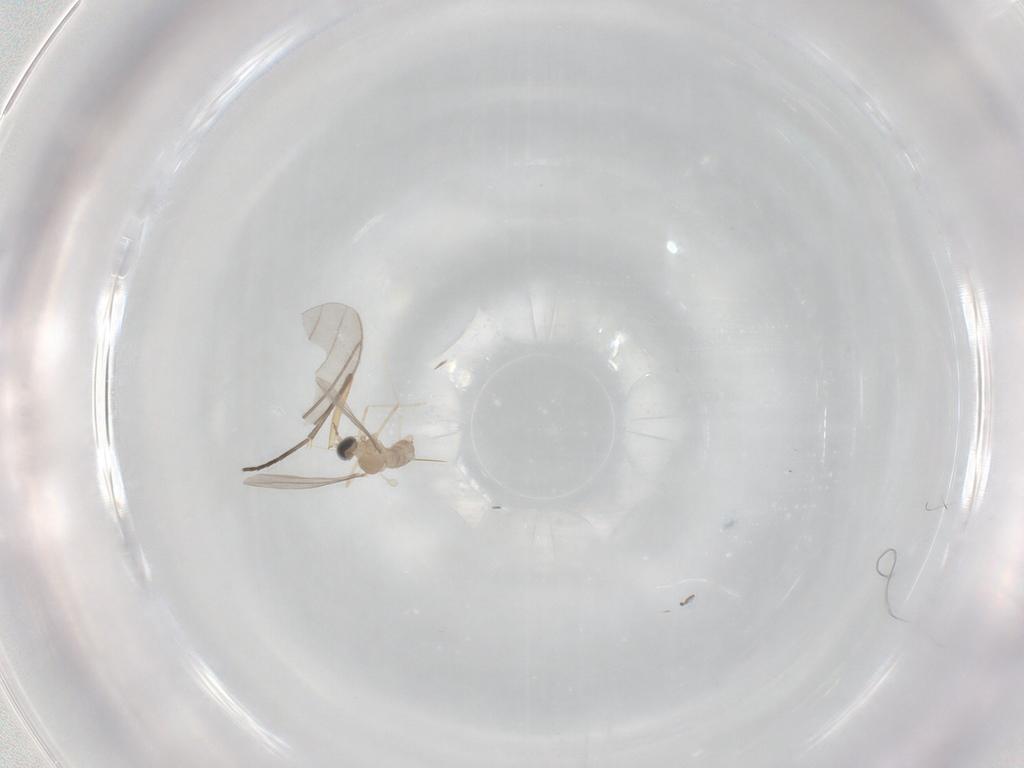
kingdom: Animalia
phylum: Arthropoda
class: Insecta
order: Diptera
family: Cecidomyiidae
